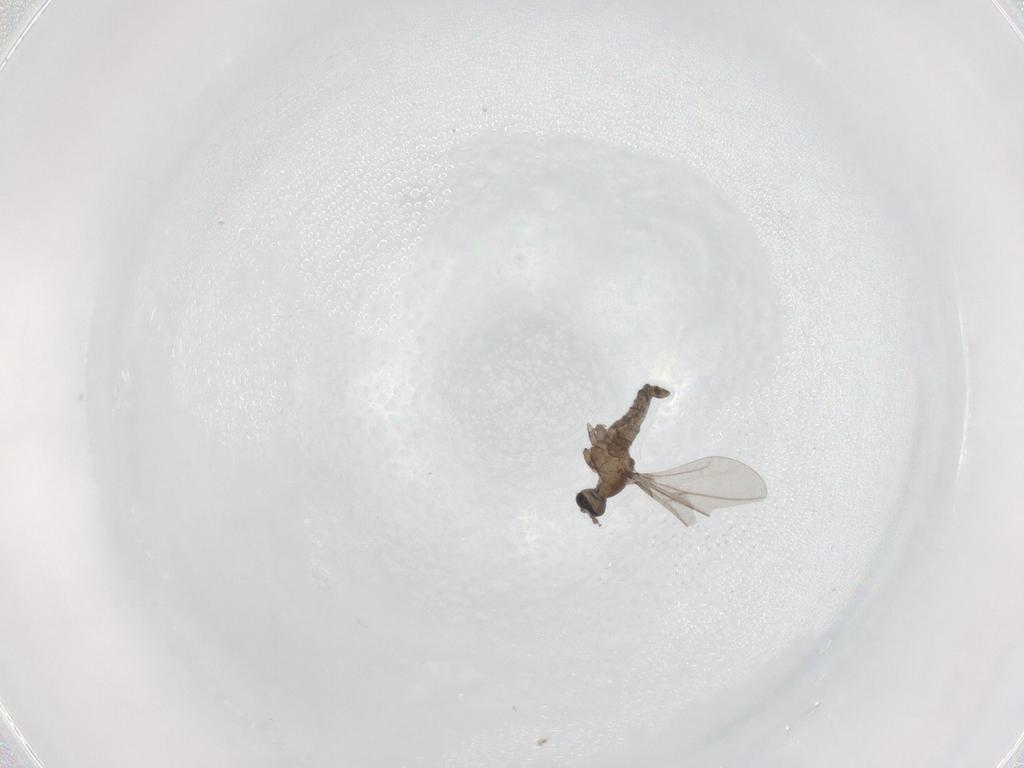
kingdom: Animalia
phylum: Arthropoda
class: Insecta
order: Diptera
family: Cecidomyiidae
